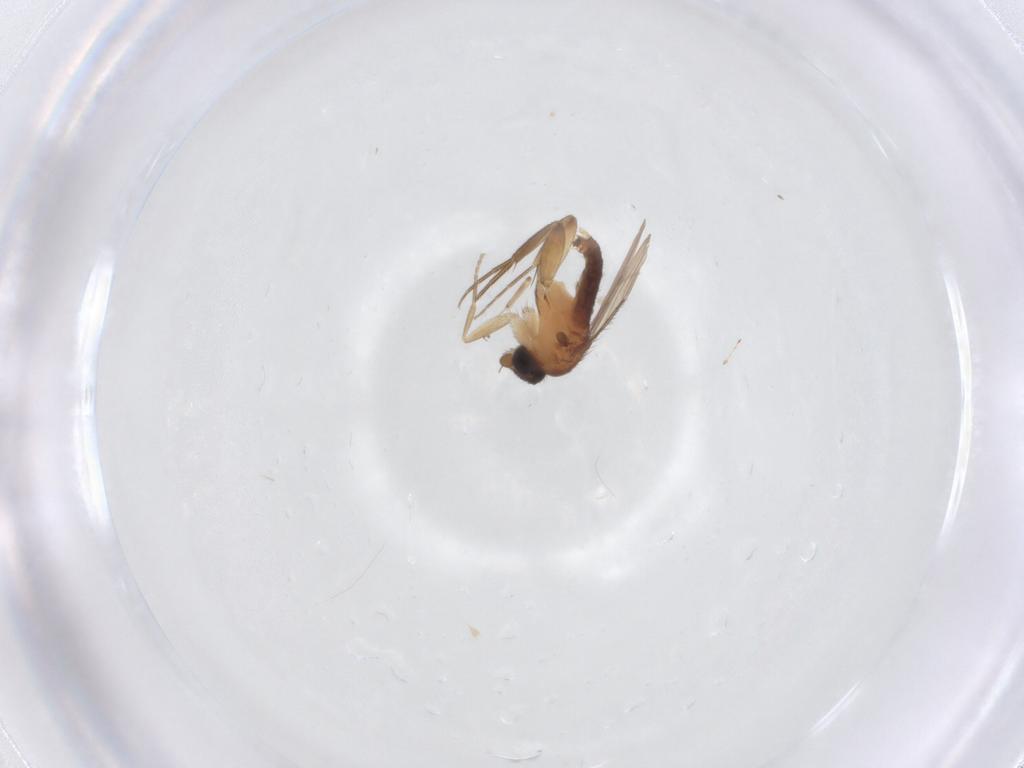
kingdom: Animalia
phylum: Arthropoda
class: Insecta
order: Diptera
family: Phoridae
